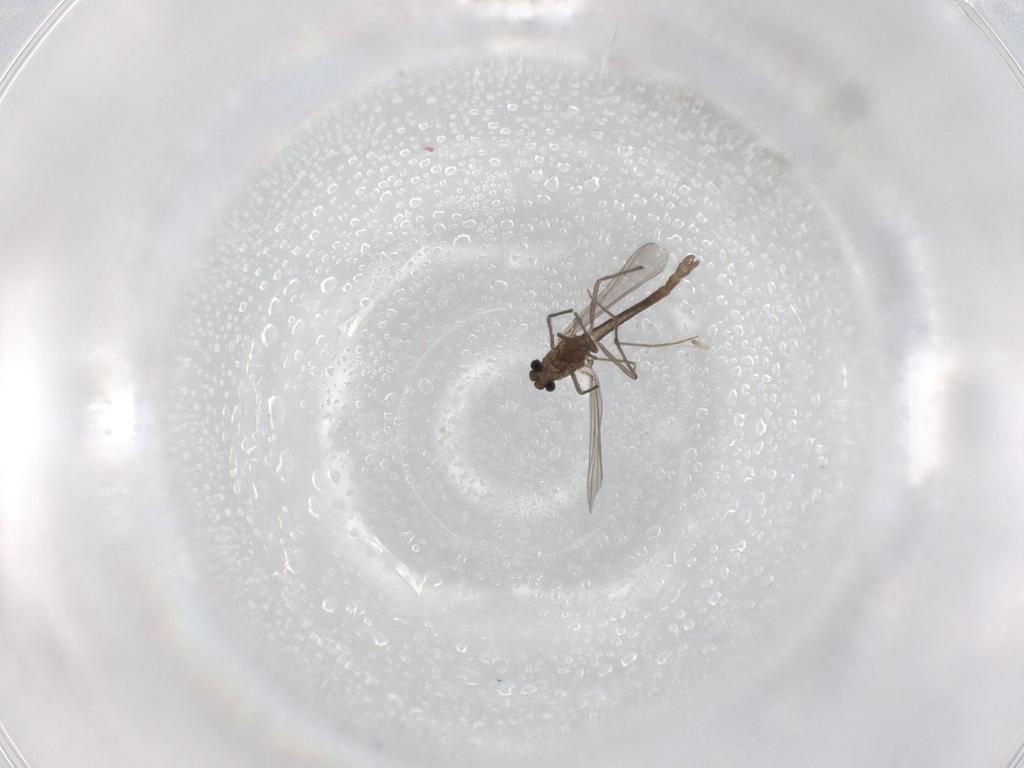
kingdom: Animalia
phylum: Arthropoda
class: Insecta
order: Diptera
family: Chironomidae
